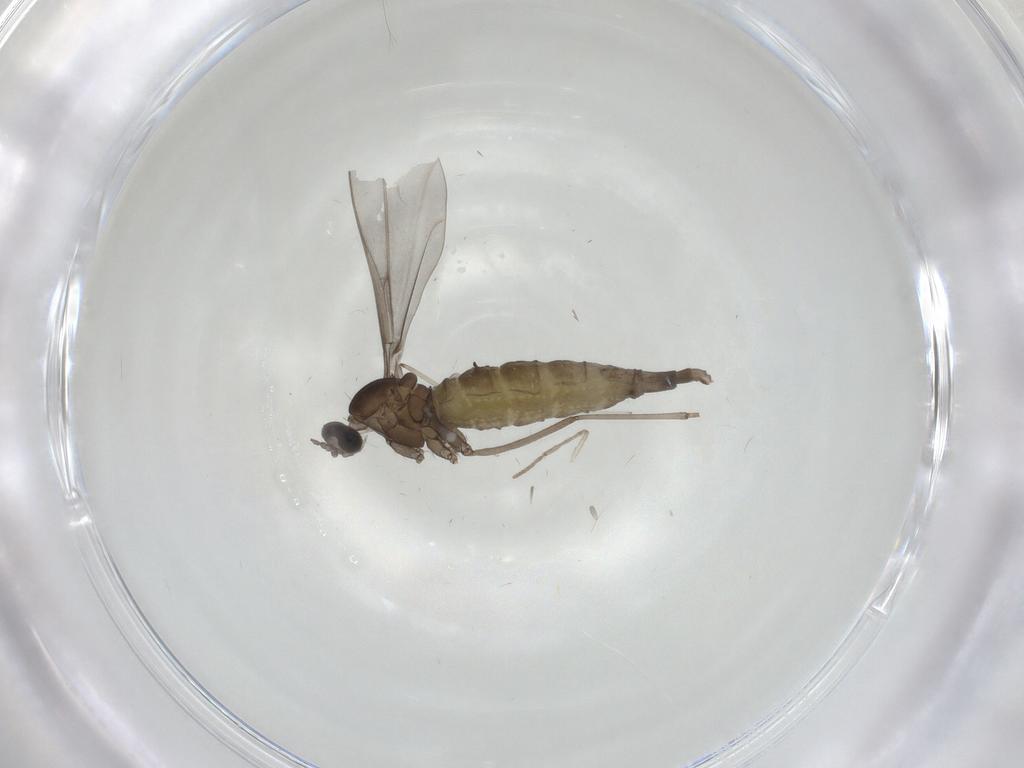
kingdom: Animalia
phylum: Arthropoda
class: Insecta
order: Diptera
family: Cecidomyiidae
